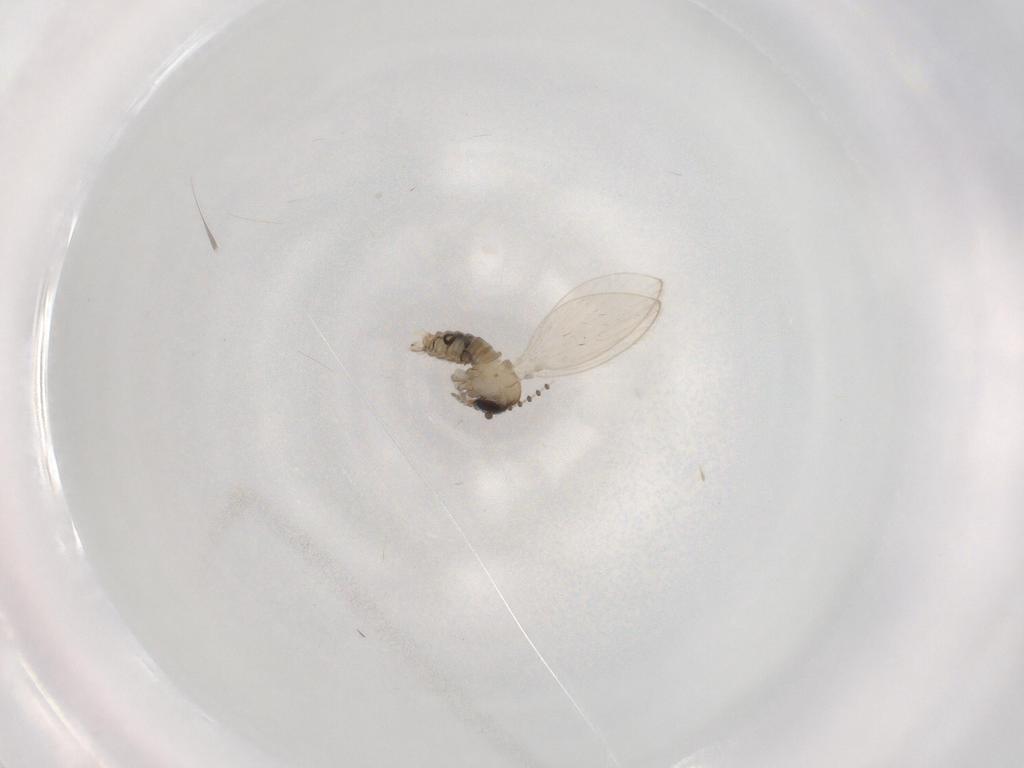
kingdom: Animalia
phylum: Arthropoda
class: Insecta
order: Diptera
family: Psychodidae
